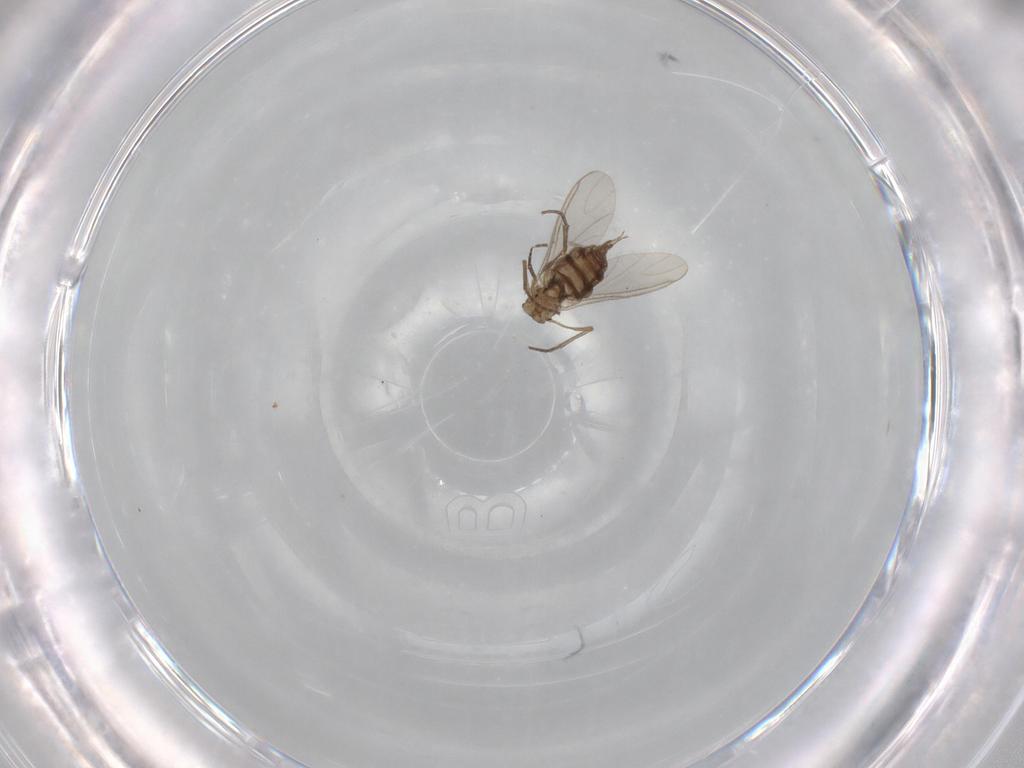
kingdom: Animalia
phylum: Arthropoda
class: Insecta
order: Diptera
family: Sciaridae
